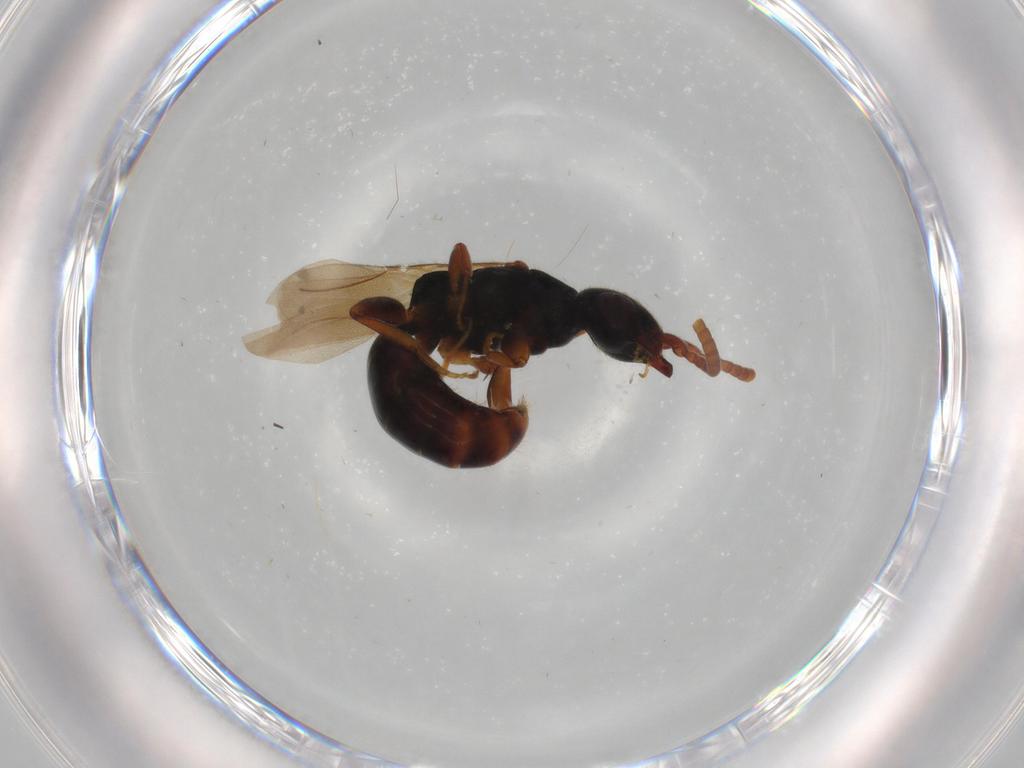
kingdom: Animalia
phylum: Arthropoda
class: Insecta
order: Hymenoptera
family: Bethylidae
